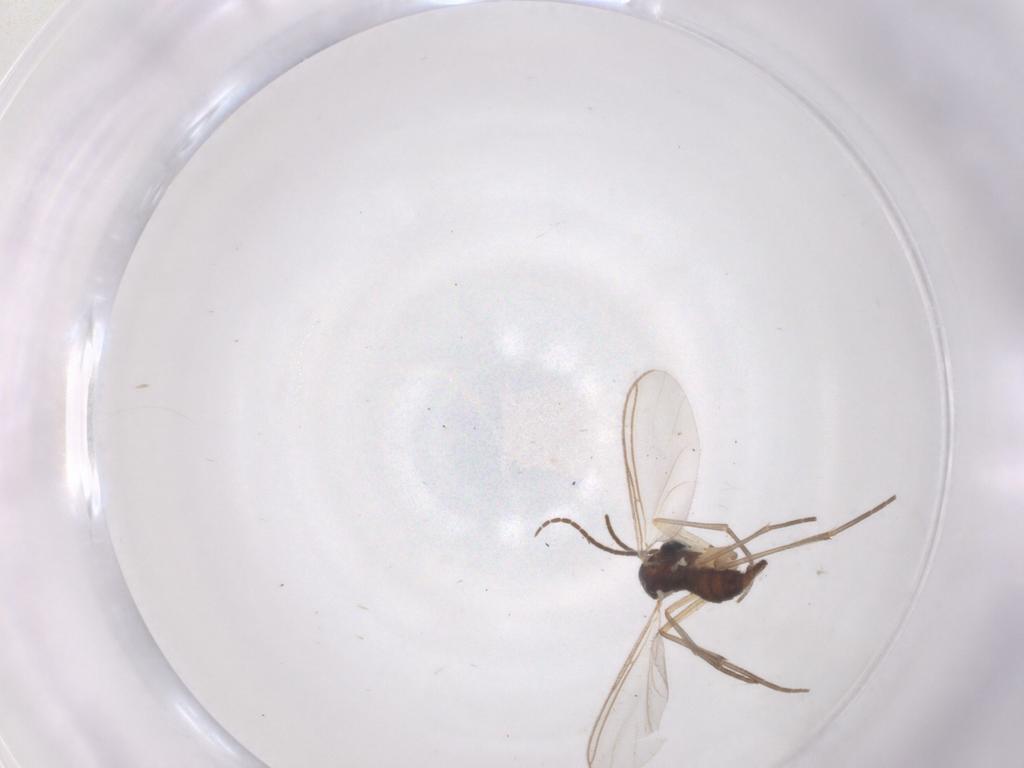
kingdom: Animalia
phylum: Arthropoda
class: Insecta
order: Diptera
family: Sciaridae
